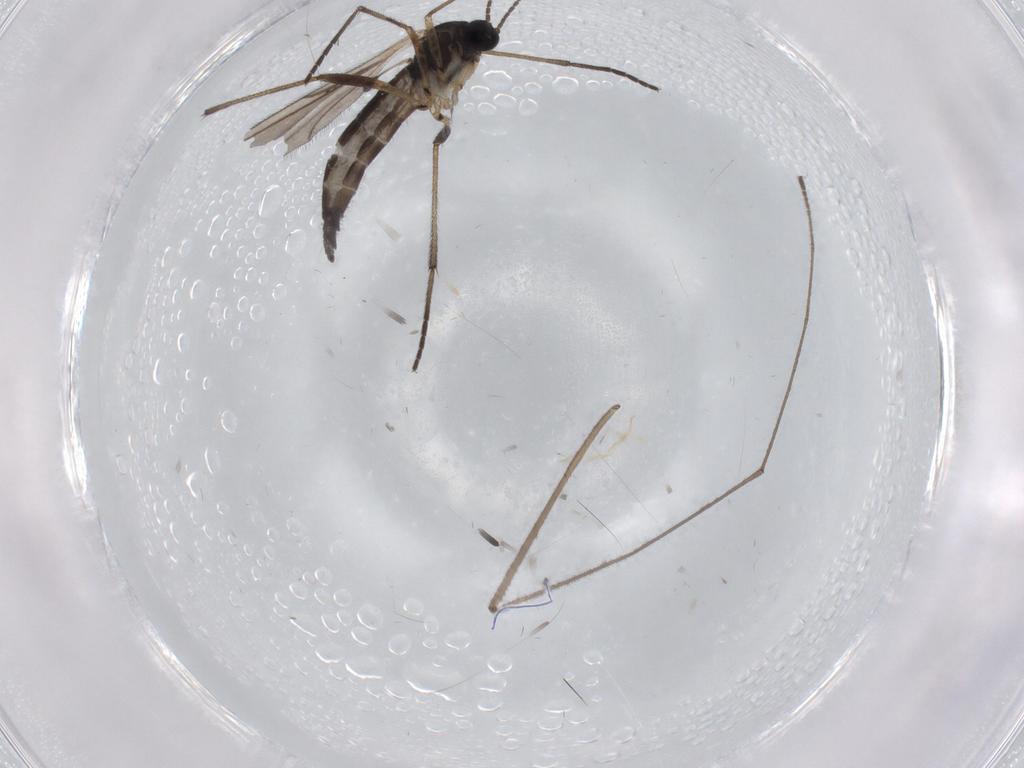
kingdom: Animalia
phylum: Arthropoda
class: Insecta
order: Diptera
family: Sciaridae
